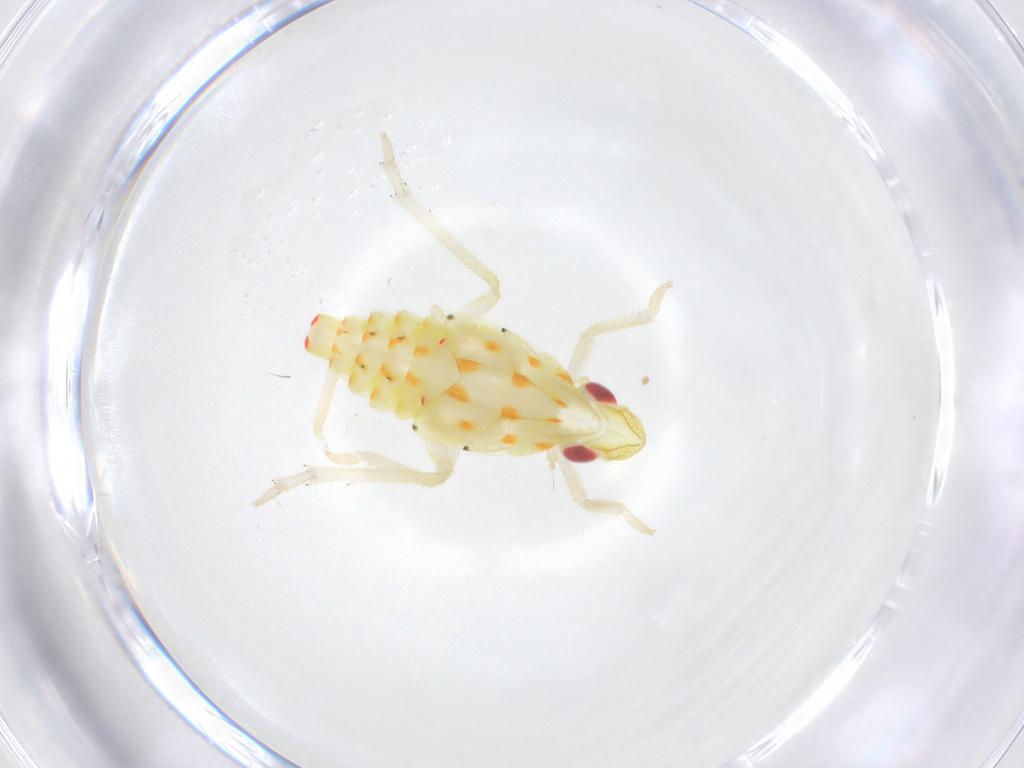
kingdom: Animalia
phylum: Arthropoda
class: Insecta
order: Hemiptera
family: Tropiduchidae
